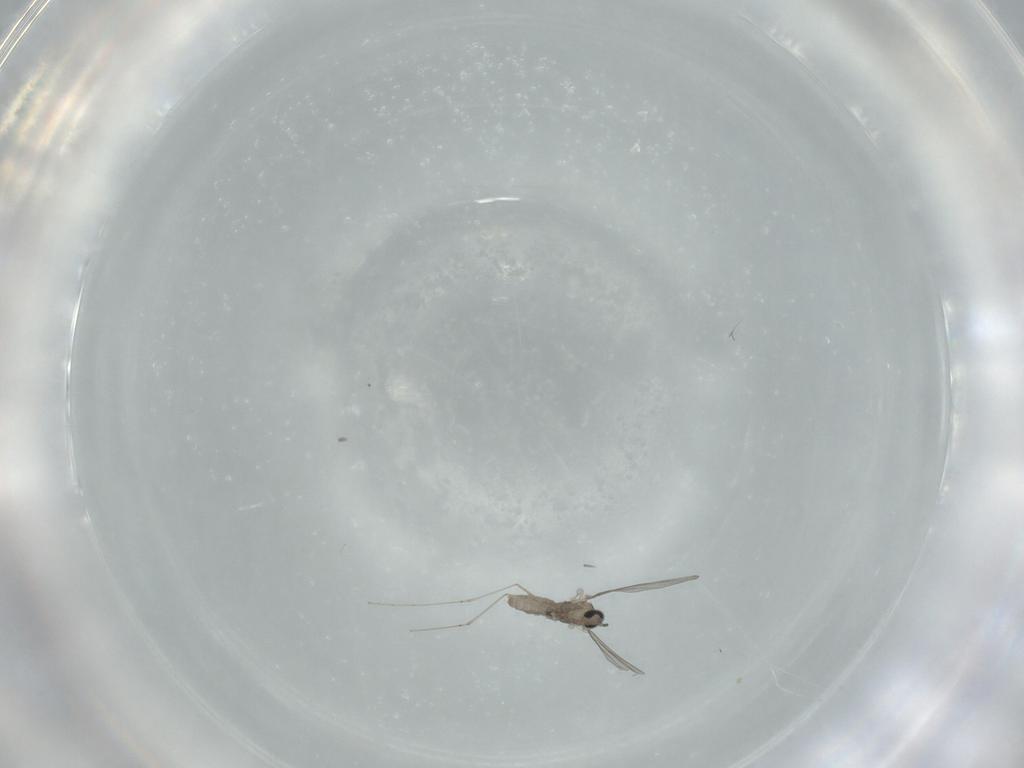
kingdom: Animalia
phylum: Arthropoda
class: Insecta
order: Diptera
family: Cecidomyiidae
